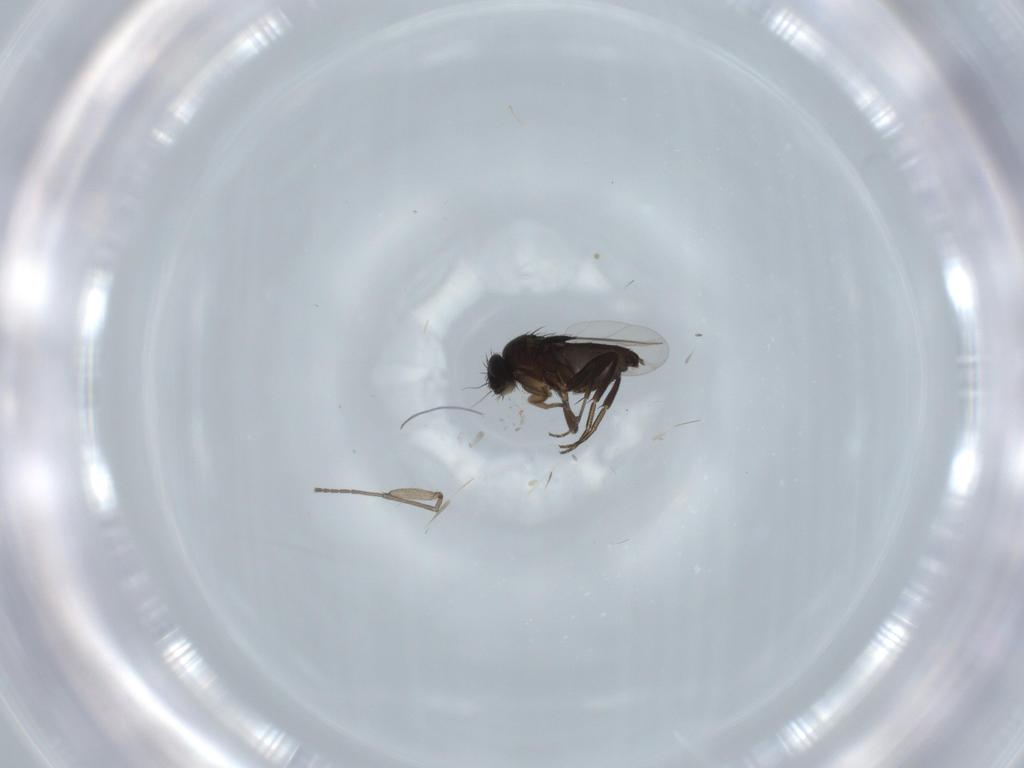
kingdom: Animalia
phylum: Arthropoda
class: Insecta
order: Diptera
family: Phoridae
